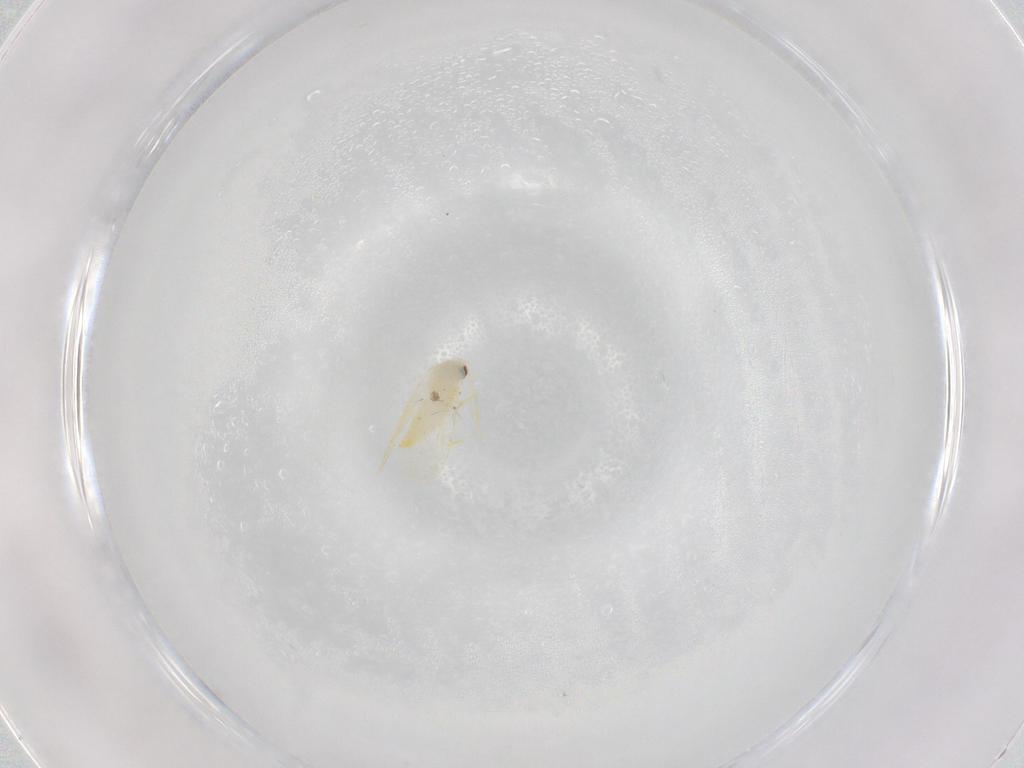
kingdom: Animalia
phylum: Arthropoda
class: Insecta
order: Hemiptera
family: Aleyrodidae
